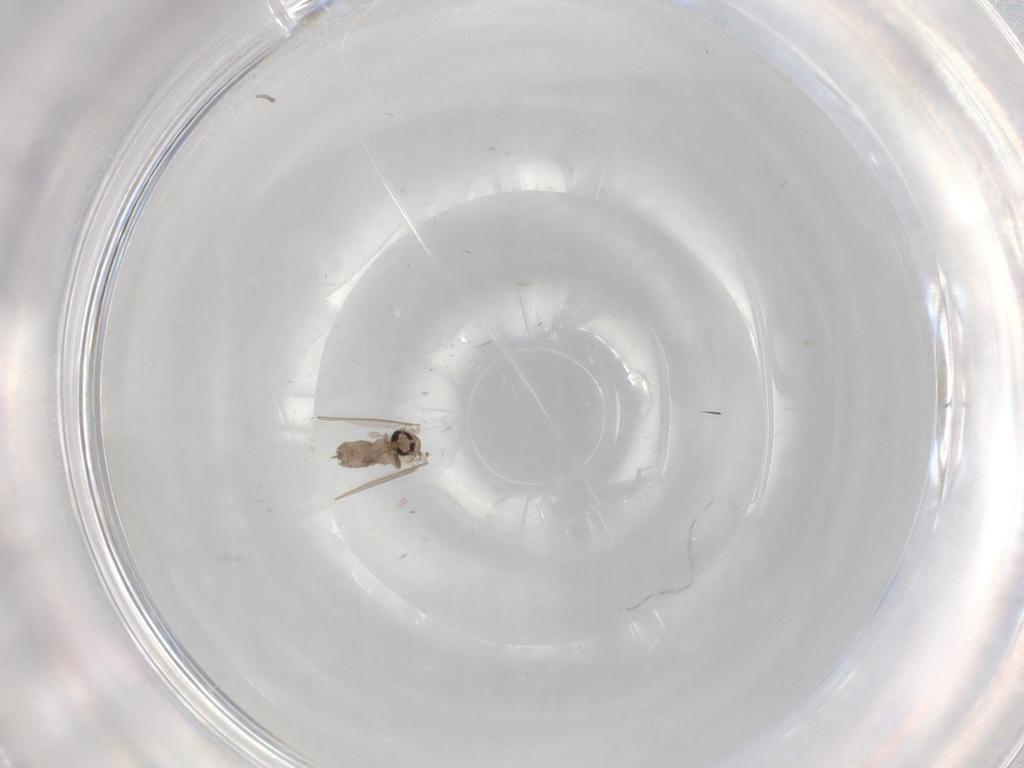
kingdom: Animalia
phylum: Arthropoda
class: Insecta
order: Diptera
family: Psychodidae
